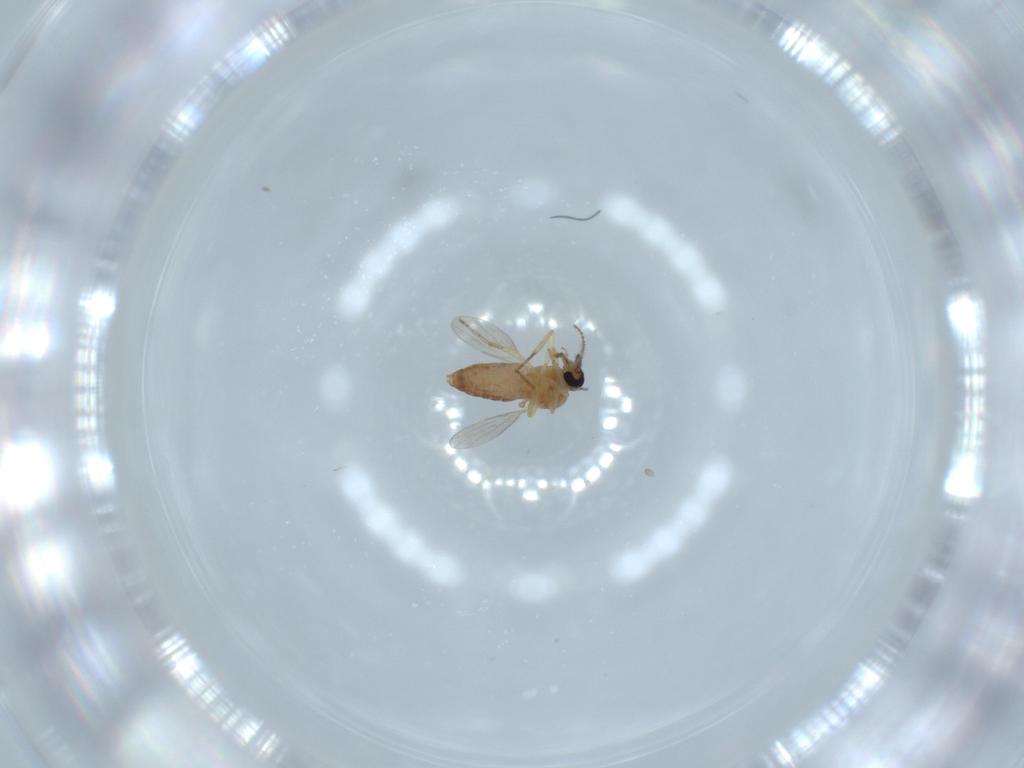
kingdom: Animalia
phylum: Arthropoda
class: Insecta
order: Diptera
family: Ceratopogonidae
